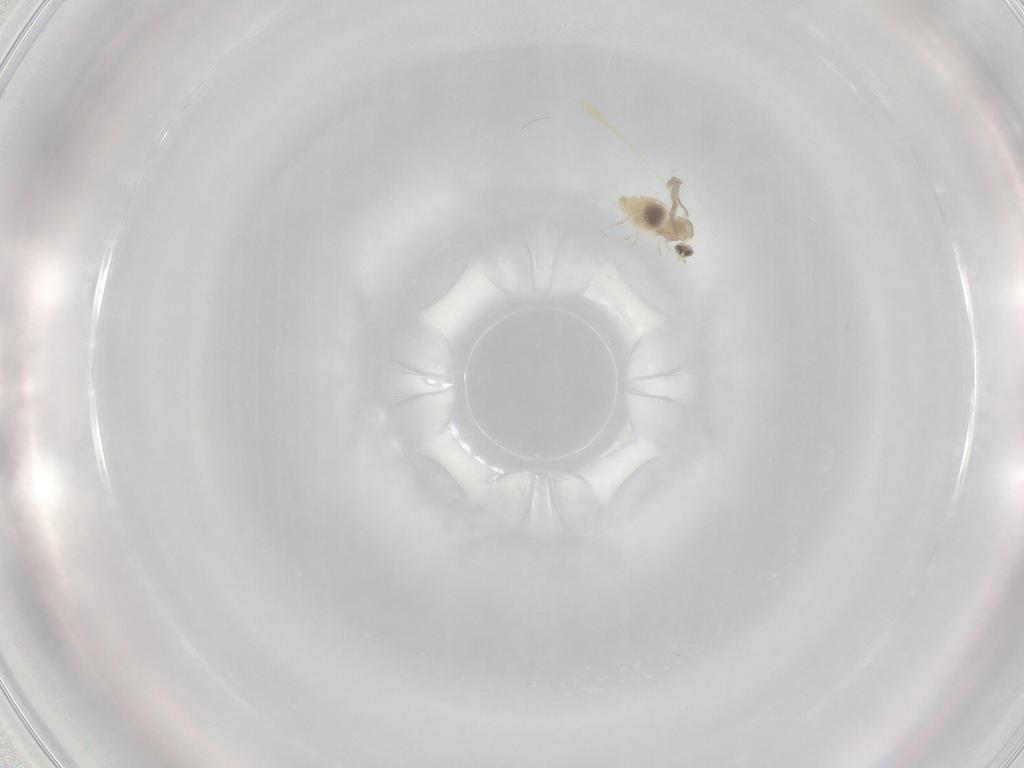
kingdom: Animalia
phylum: Arthropoda
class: Insecta
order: Diptera
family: Cecidomyiidae
